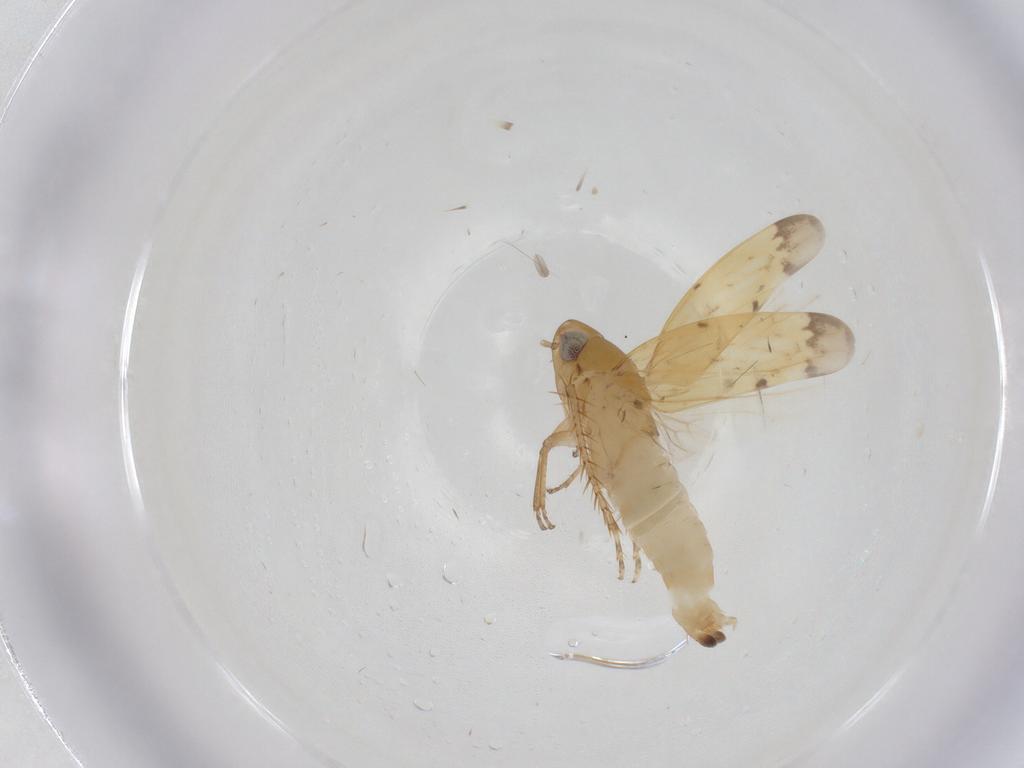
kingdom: Animalia
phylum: Arthropoda
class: Insecta
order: Hemiptera
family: Cicadellidae
